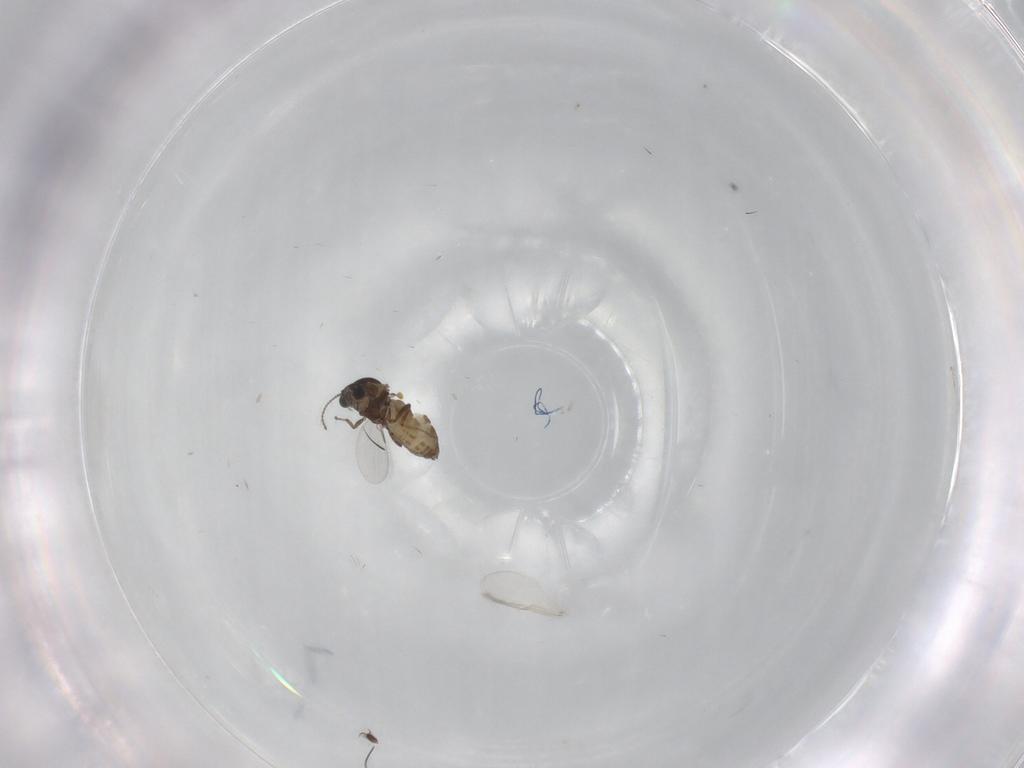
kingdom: Animalia
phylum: Arthropoda
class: Insecta
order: Diptera
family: Ceratopogonidae
